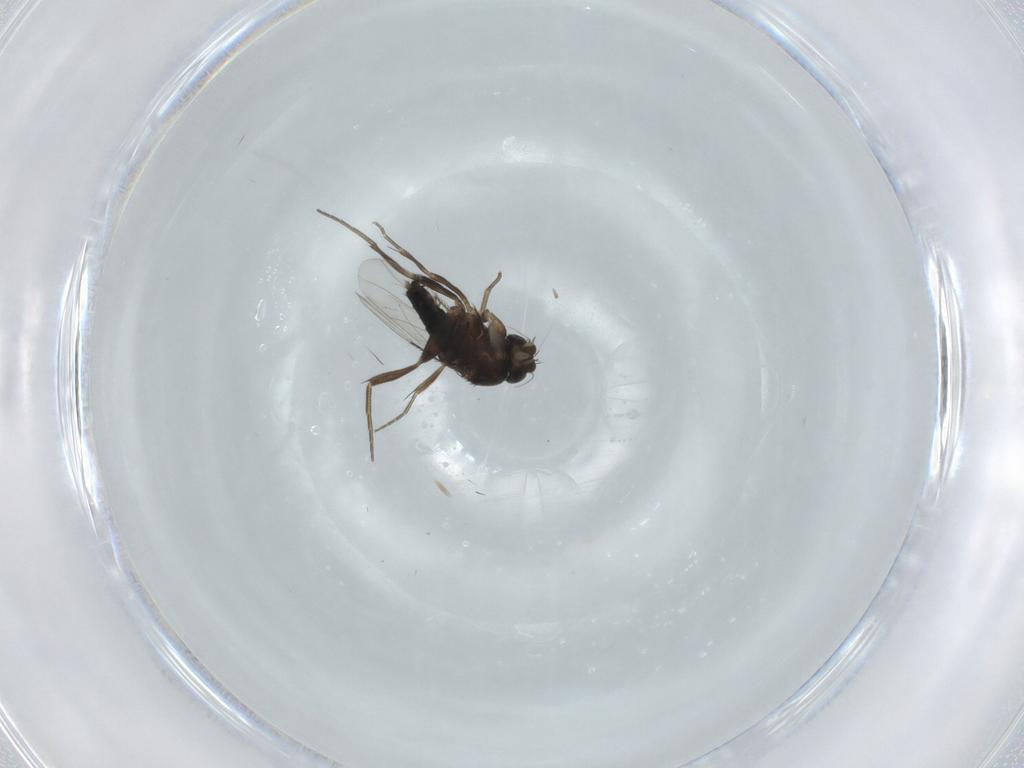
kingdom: Animalia
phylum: Arthropoda
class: Insecta
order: Diptera
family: Phoridae
